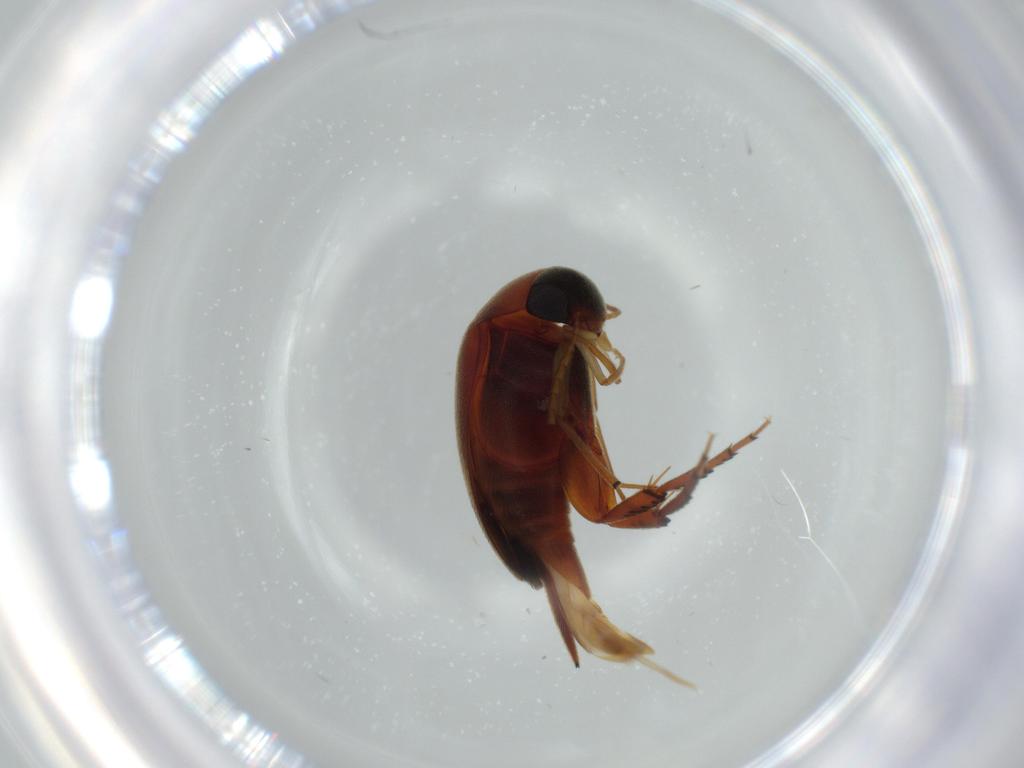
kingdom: Animalia
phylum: Arthropoda
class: Insecta
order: Coleoptera
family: Mordellidae
